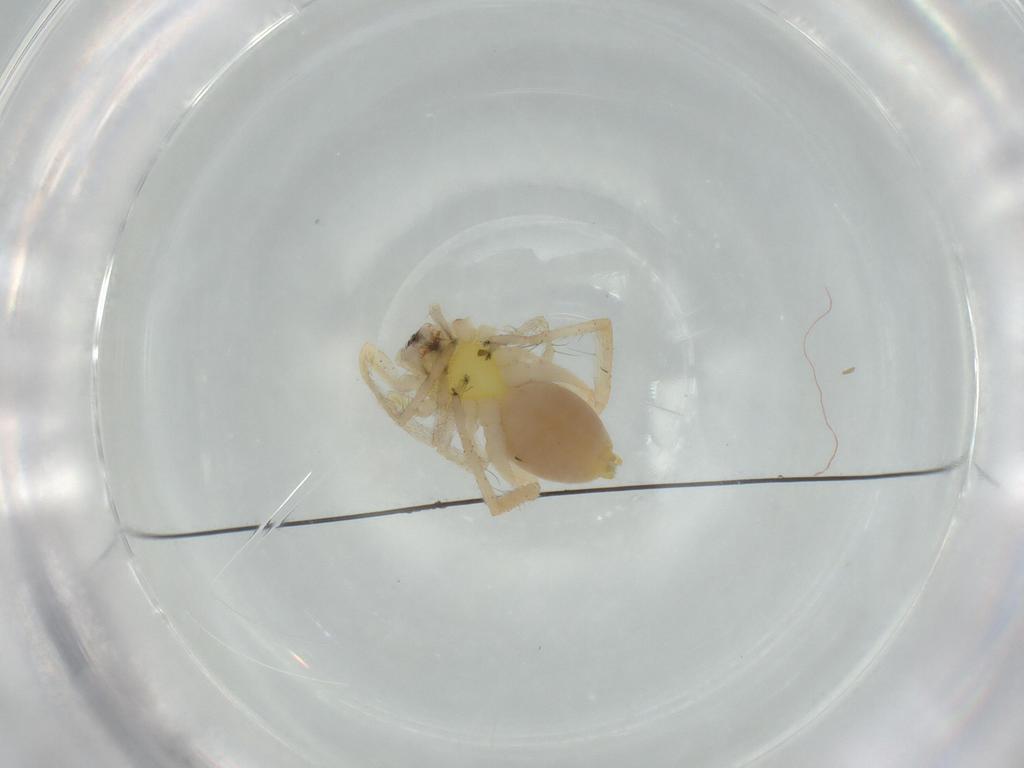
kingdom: Animalia
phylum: Arthropoda
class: Arachnida
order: Araneae
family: Anyphaenidae
